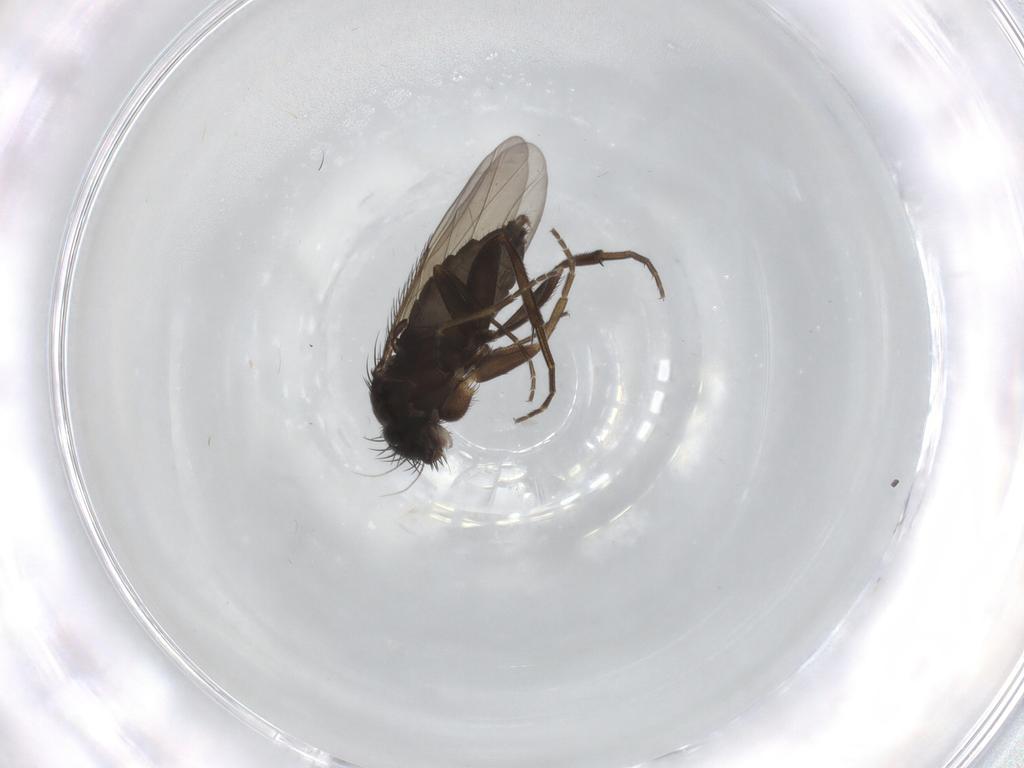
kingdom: Animalia
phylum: Arthropoda
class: Insecta
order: Diptera
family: Phoridae
